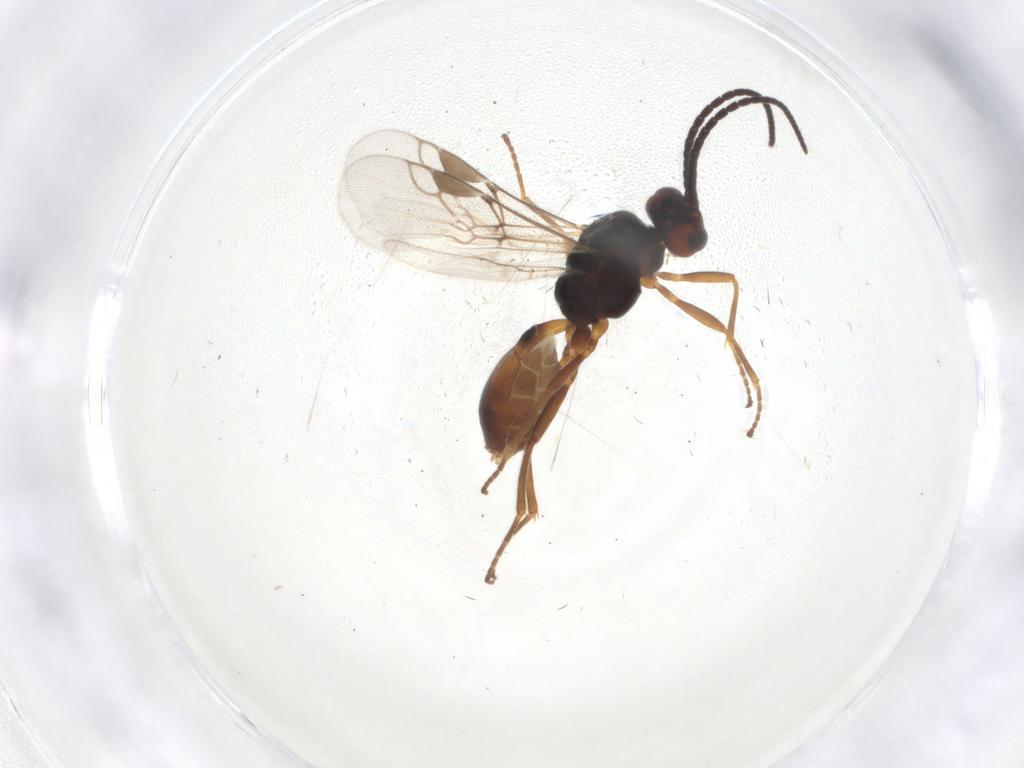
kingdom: Animalia
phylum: Arthropoda
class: Insecta
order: Hymenoptera
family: Braconidae
